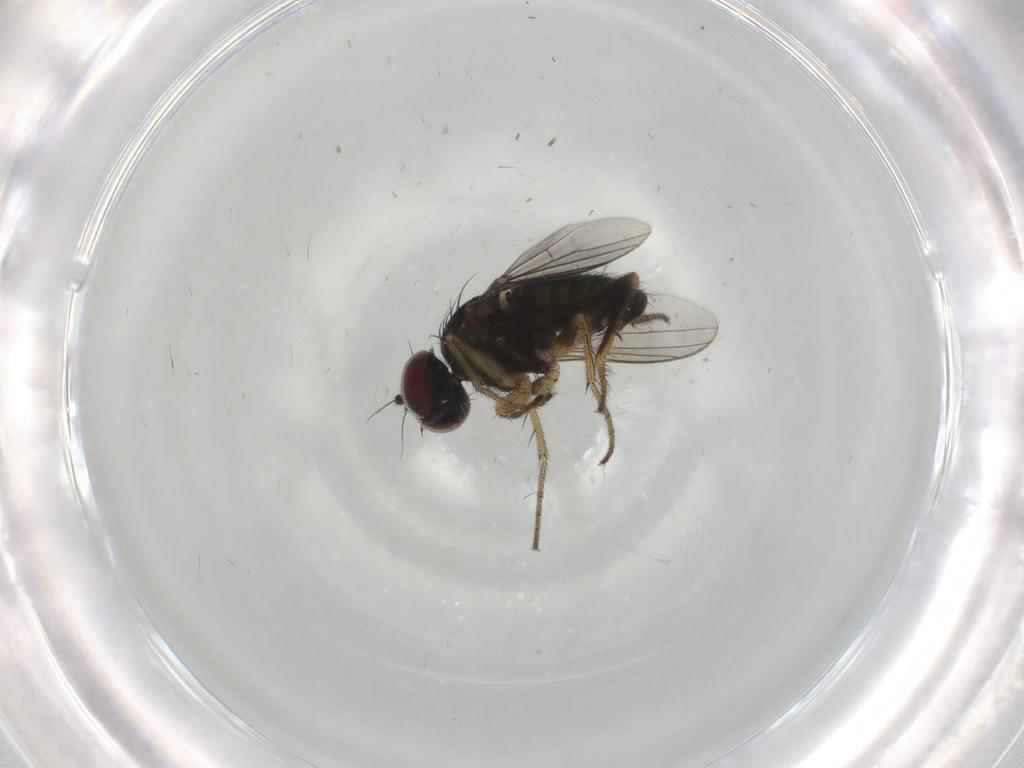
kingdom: Animalia
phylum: Arthropoda
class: Insecta
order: Diptera
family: Dolichopodidae
